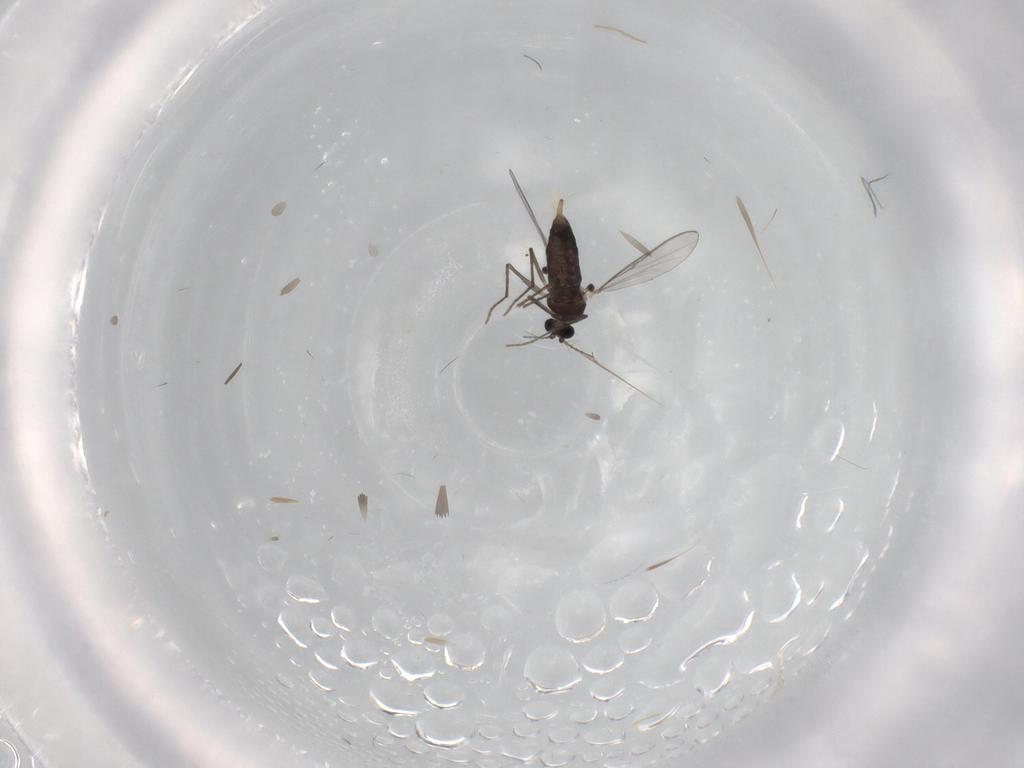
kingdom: Animalia
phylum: Arthropoda
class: Insecta
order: Diptera
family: Chironomidae
